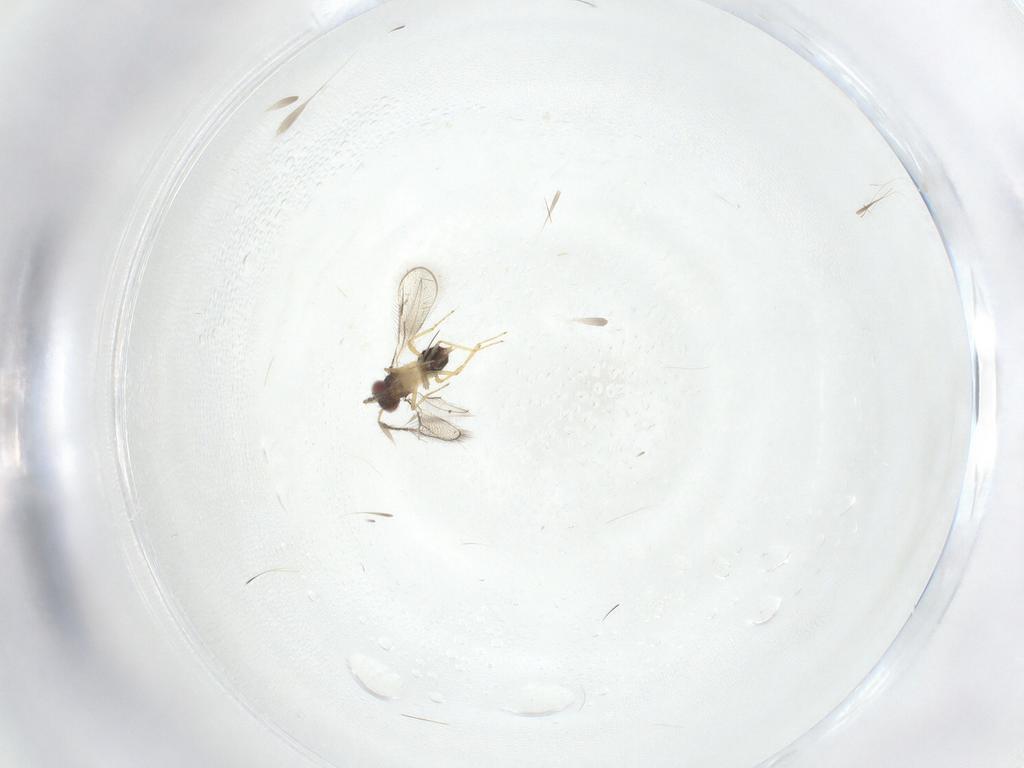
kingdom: Animalia
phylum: Arthropoda
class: Insecta
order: Hymenoptera
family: Eulophidae
